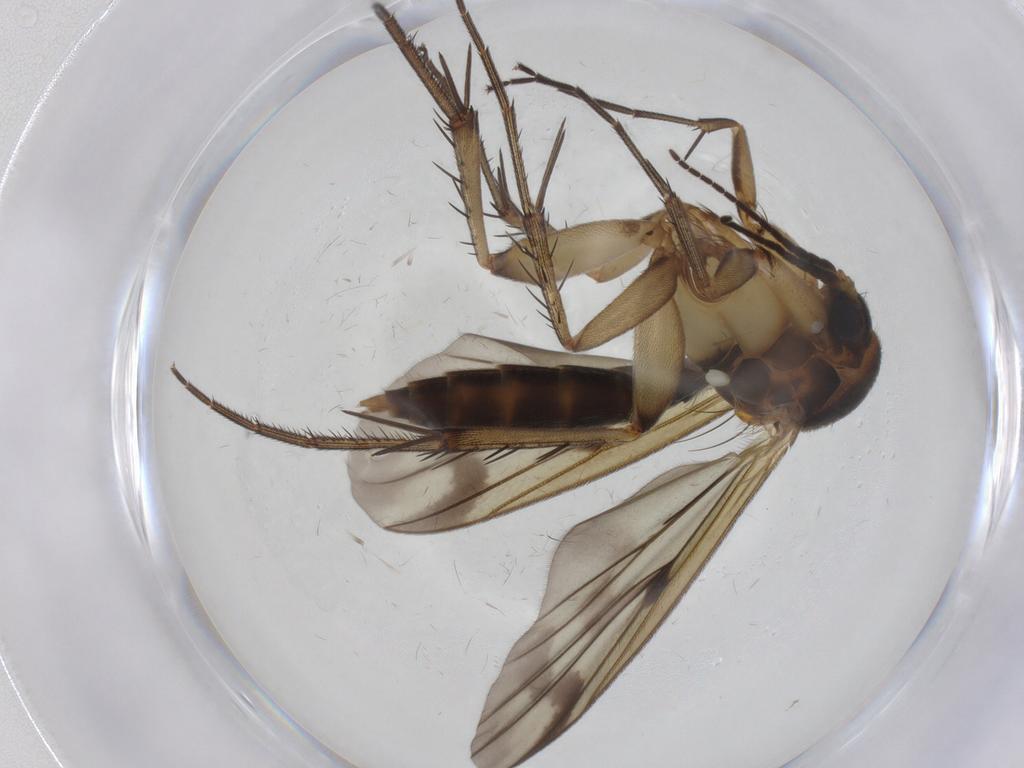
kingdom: Animalia
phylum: Arthropoda
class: Insecta
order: Diptera
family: Mycetophilidae
